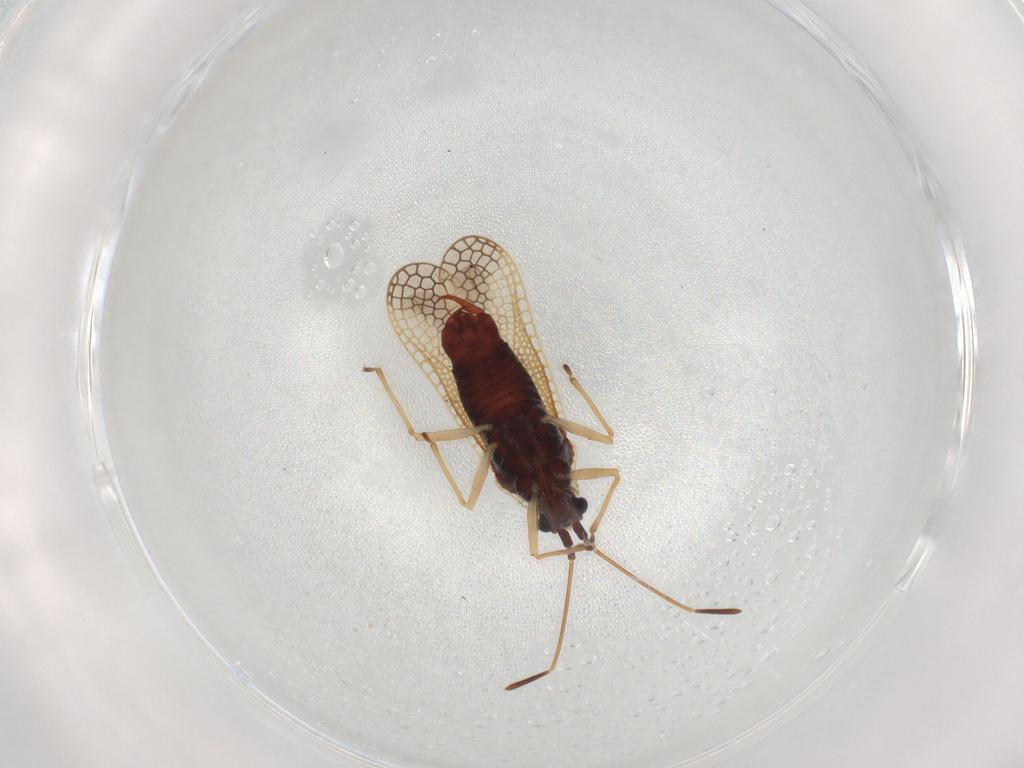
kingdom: Animalia
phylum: Arthropoda
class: Insecta
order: Hemiptera
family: Tingidae
